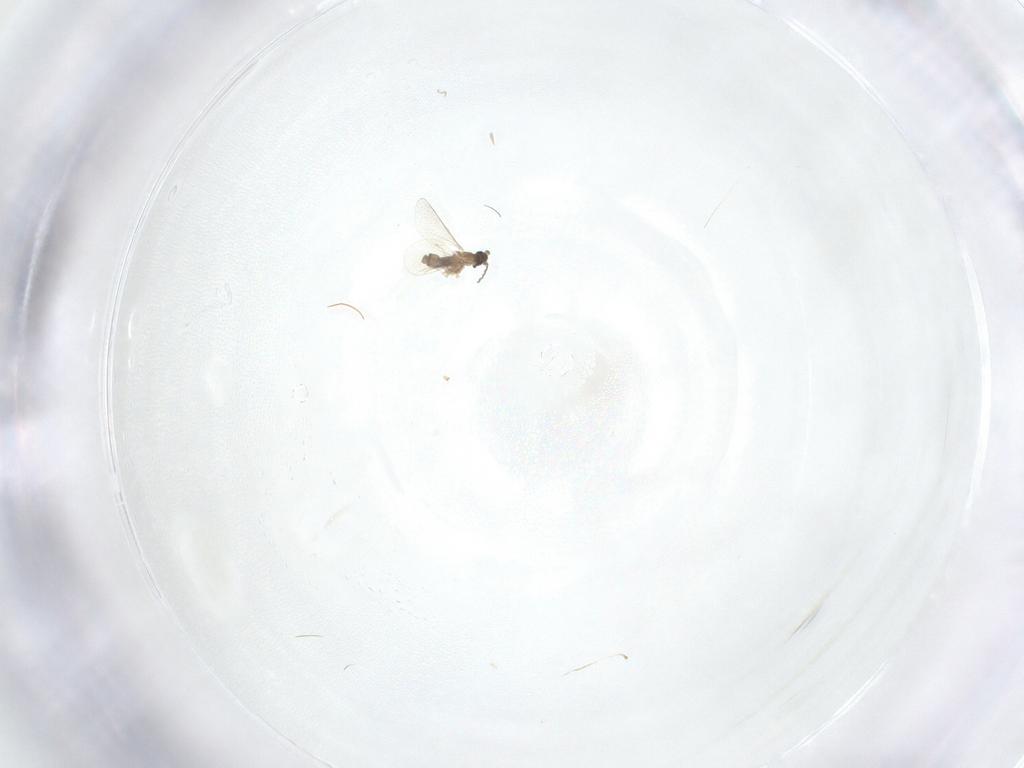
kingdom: Animalia
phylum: Arthropoda
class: Insecta
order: Diptera
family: Cecidomyiidae
